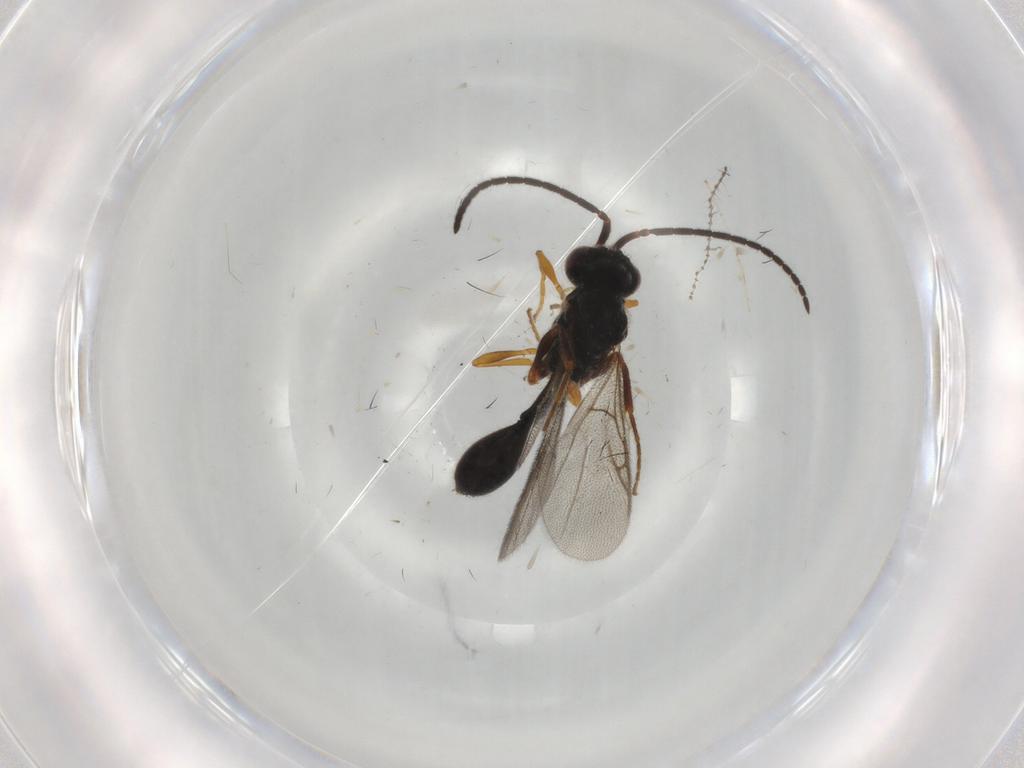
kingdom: Animalia
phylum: Arthropoda
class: Insecta
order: Hymenoptera
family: Diapriidae
